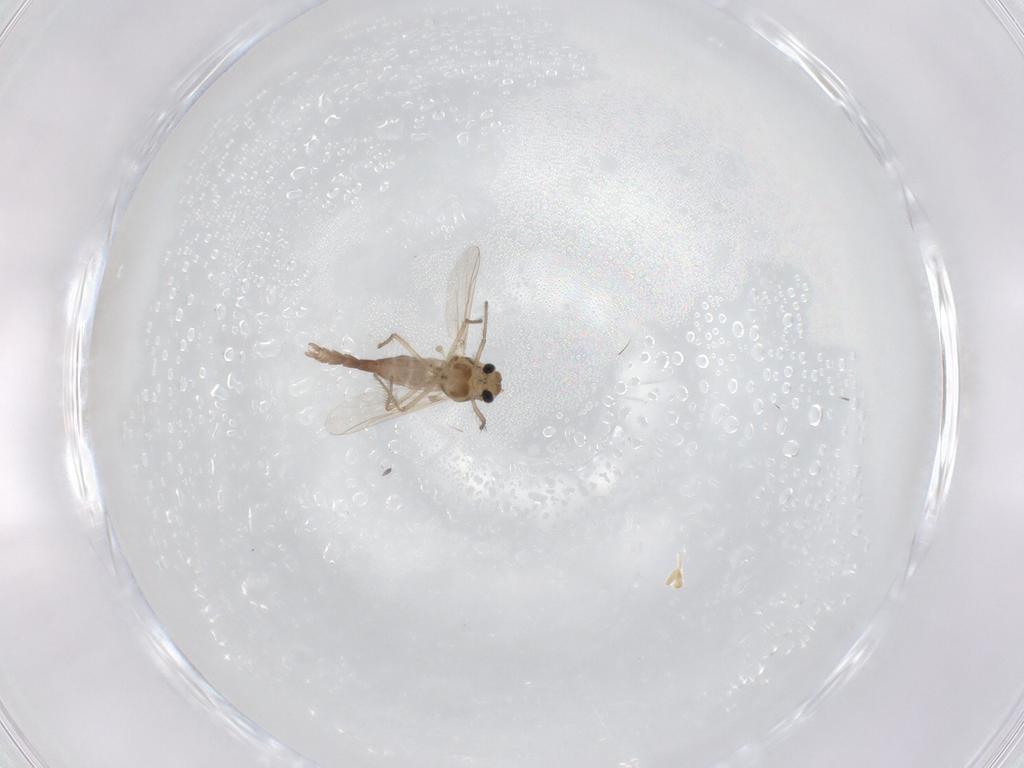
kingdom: Animalia
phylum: Arthropoda
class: Insecta
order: Diptera
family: Chironomidae
